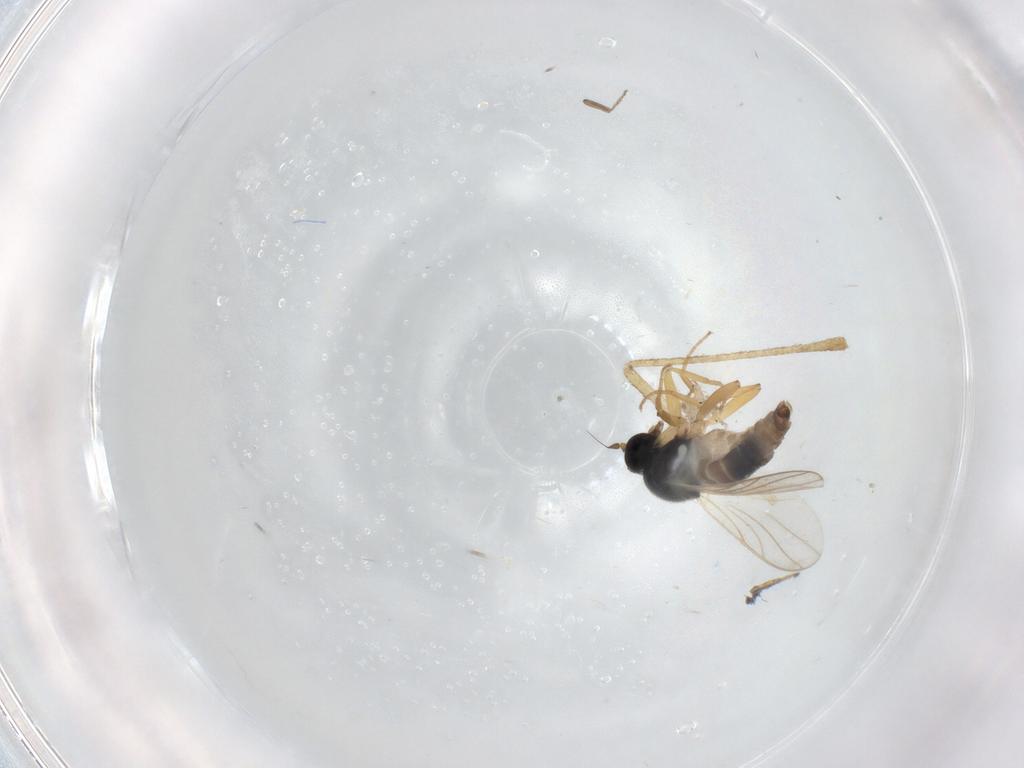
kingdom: Animalia
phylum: Arthropoda
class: Insecta
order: Diptera
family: Culicidae
